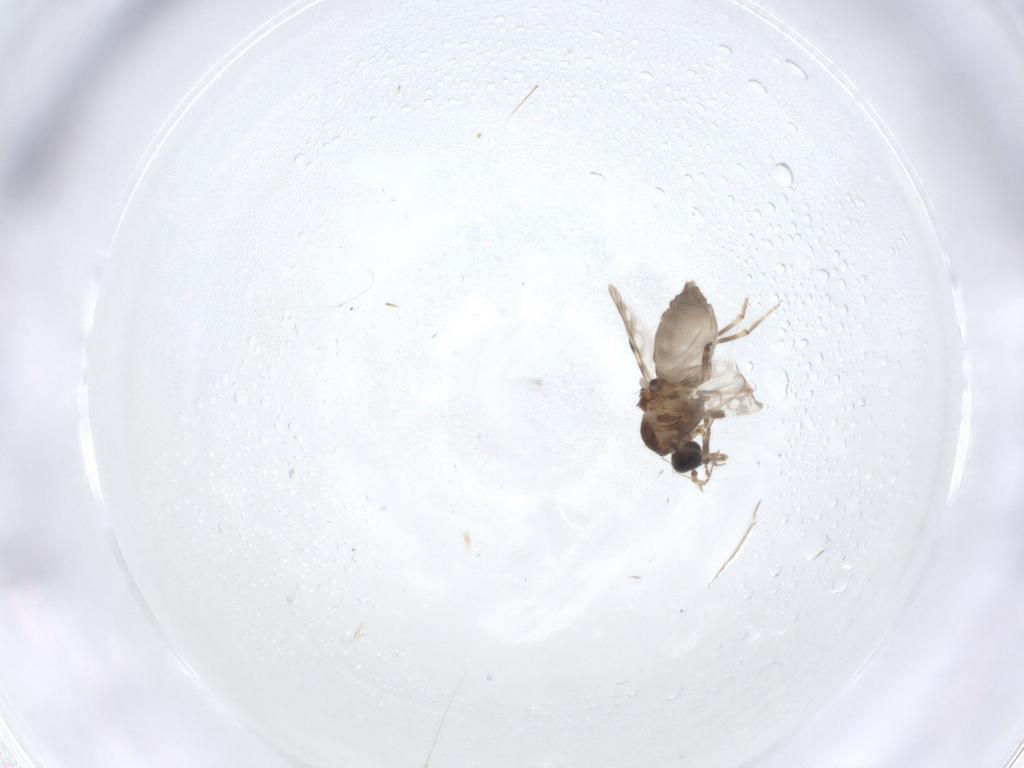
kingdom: Animalia
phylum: Arthropoda
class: Insecta
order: Diptera
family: Ceratopogonidae
